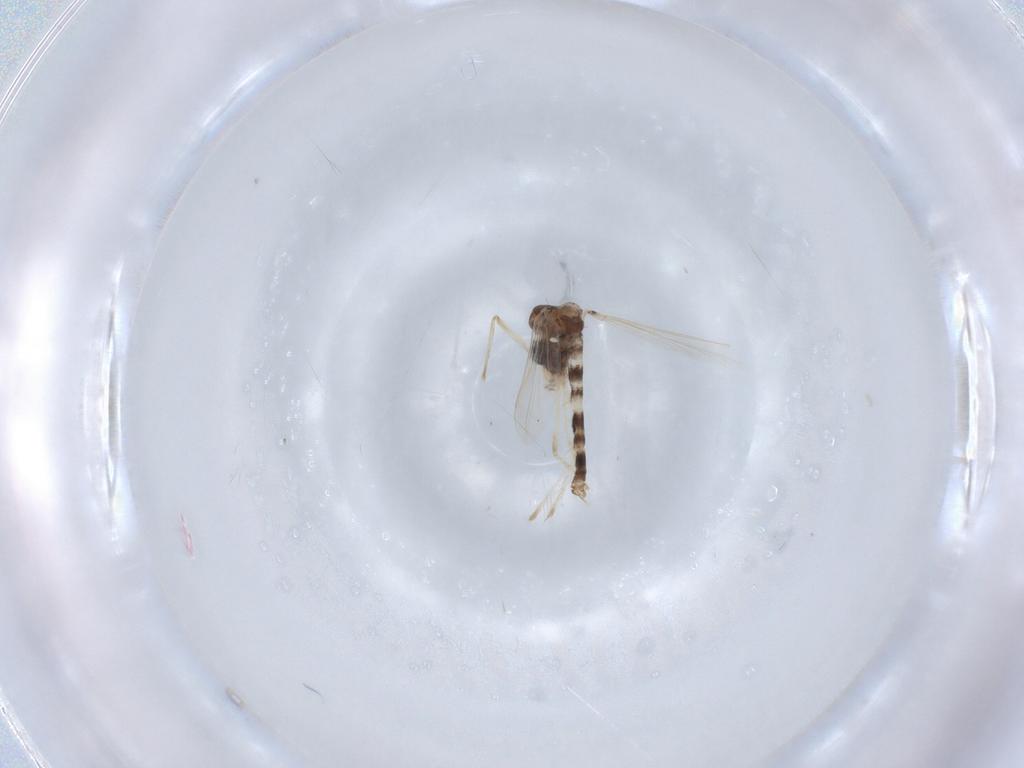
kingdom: Animalia
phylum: Arthropoda
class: Insecta
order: Diptera
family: Chironomidae
